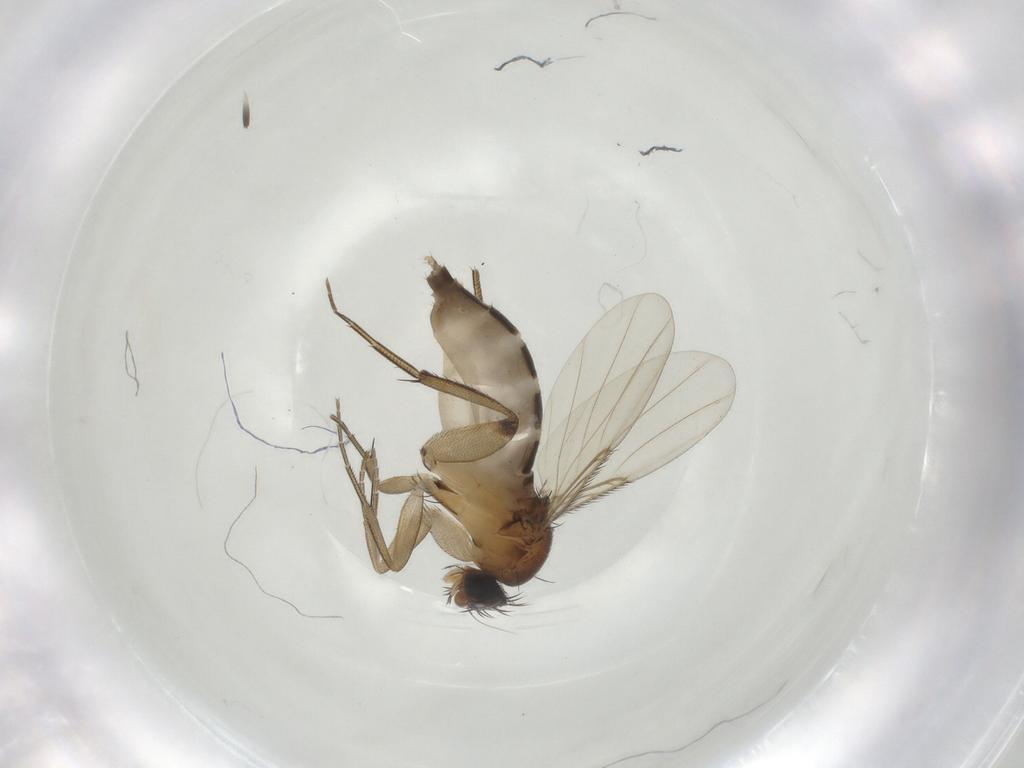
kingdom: Animalia
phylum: Arthropoda
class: Insecta
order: Diptera
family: Phoridae
